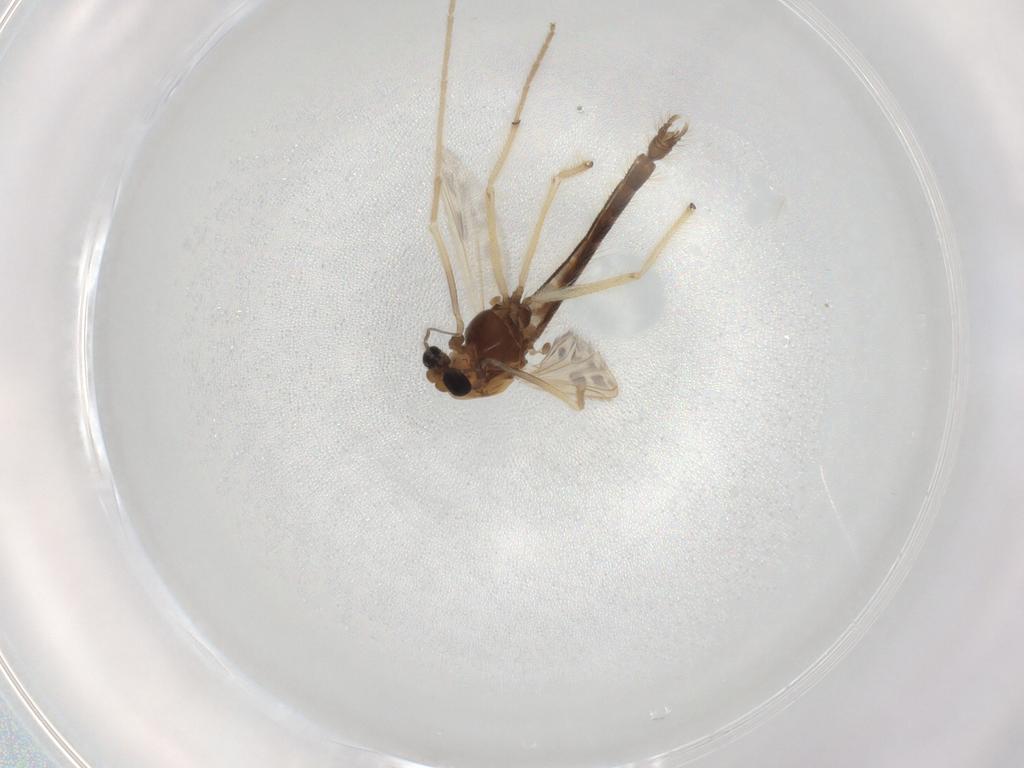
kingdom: Animalia
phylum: Arthropoda
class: Insecta
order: Diptera
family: Chironomidae
